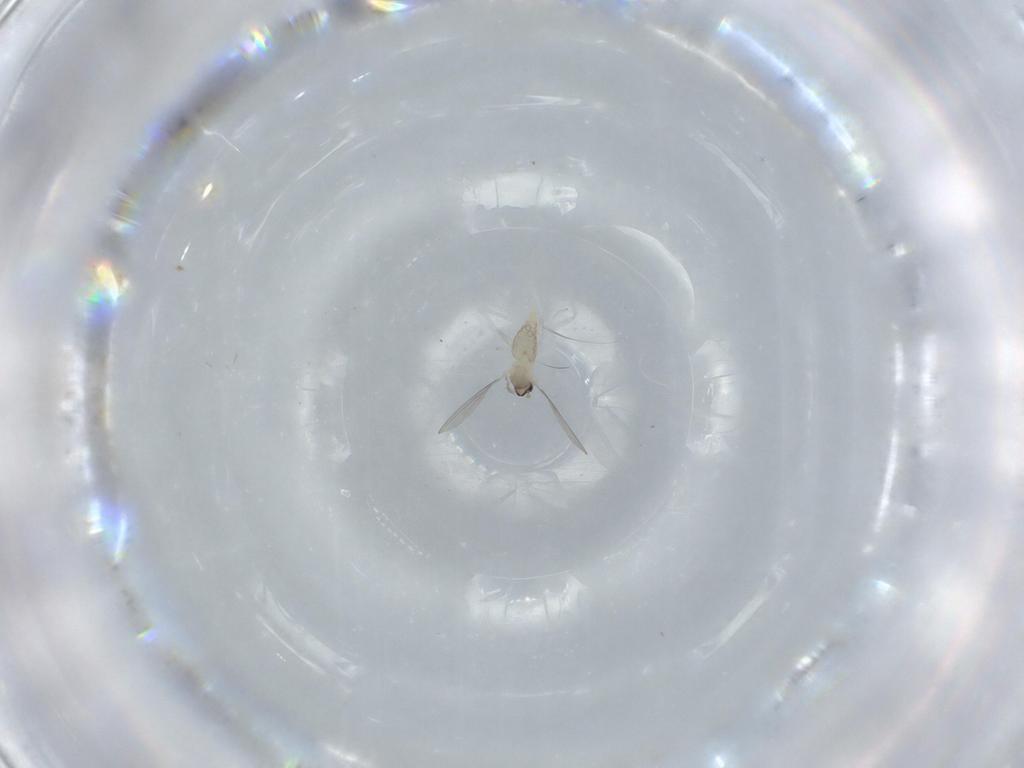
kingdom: Animalia
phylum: Arthropoda
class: Insecta
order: Diptera
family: Cecidomyiidae
